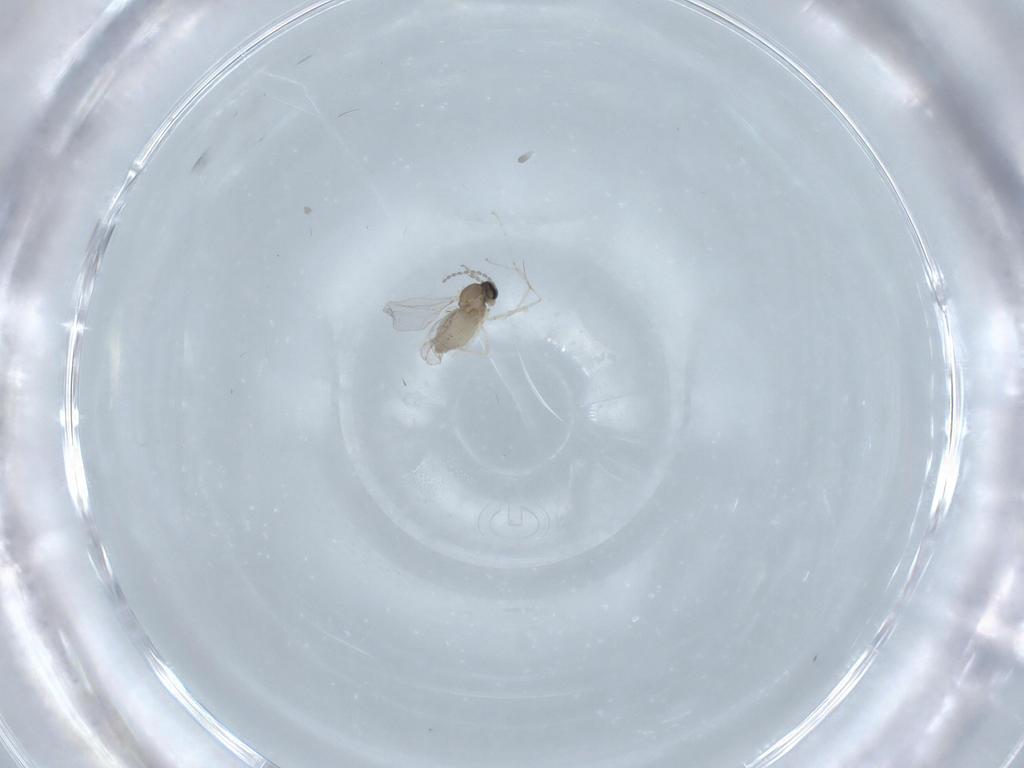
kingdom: Animalia
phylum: Arthropoda
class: Insecta
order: Diptera
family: Cecidomyiidae
